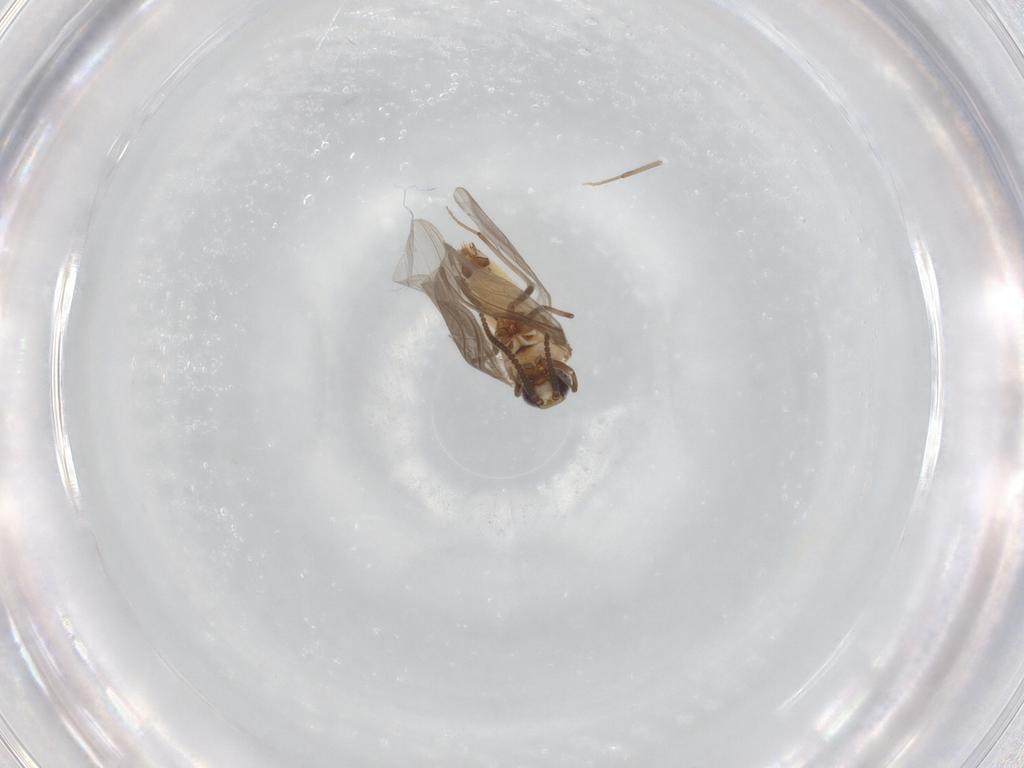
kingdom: Animalia
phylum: Arthropoda
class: Insecta
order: Neuroptera
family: Coniopterygidae
